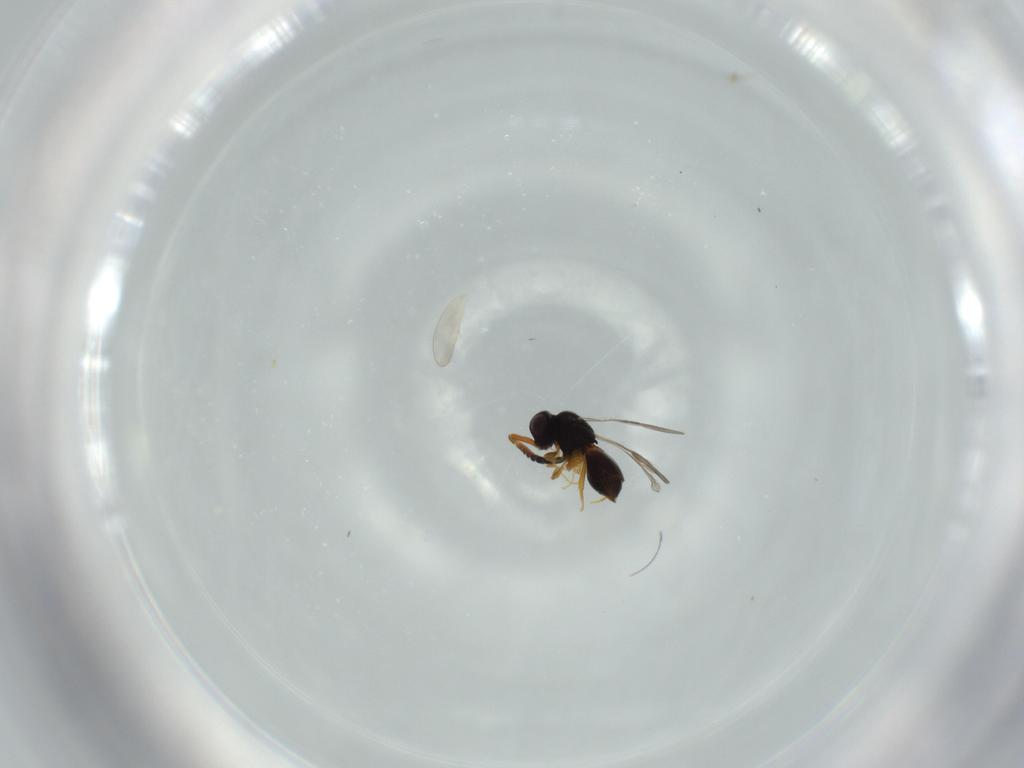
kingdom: Animalia
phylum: Arthropoda
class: Insecta
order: Hymenoptera
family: Ceraphronidae
